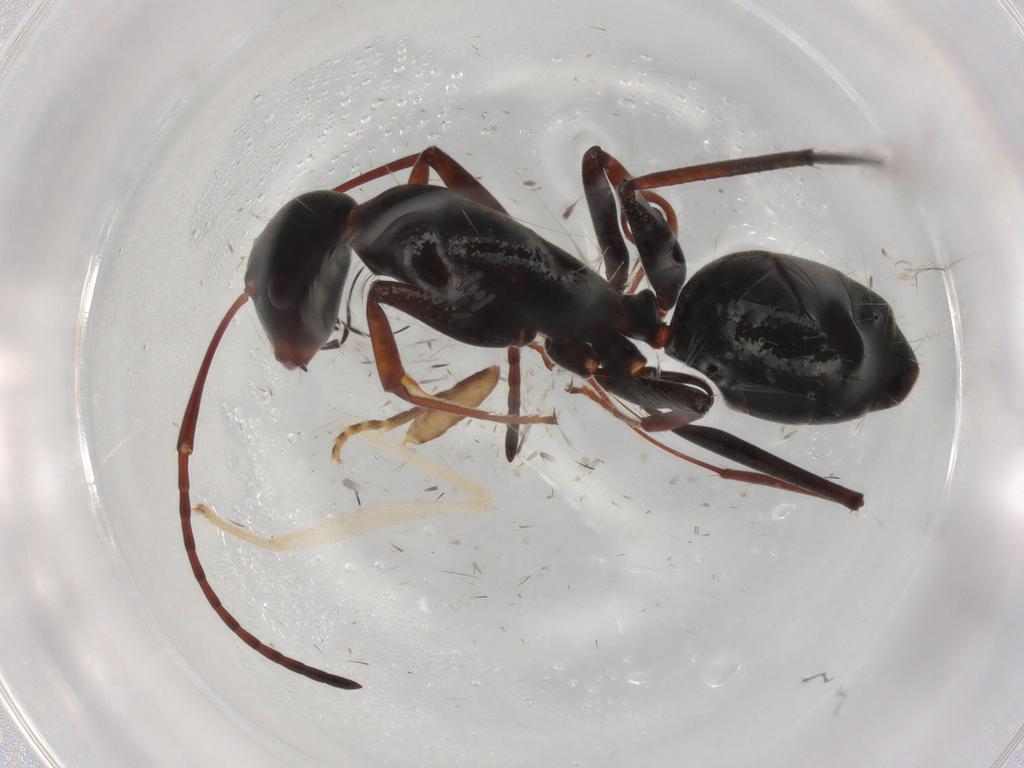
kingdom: Animalia
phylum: Arthropoda
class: Insecta
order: Hymenoptera
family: Formicidae
